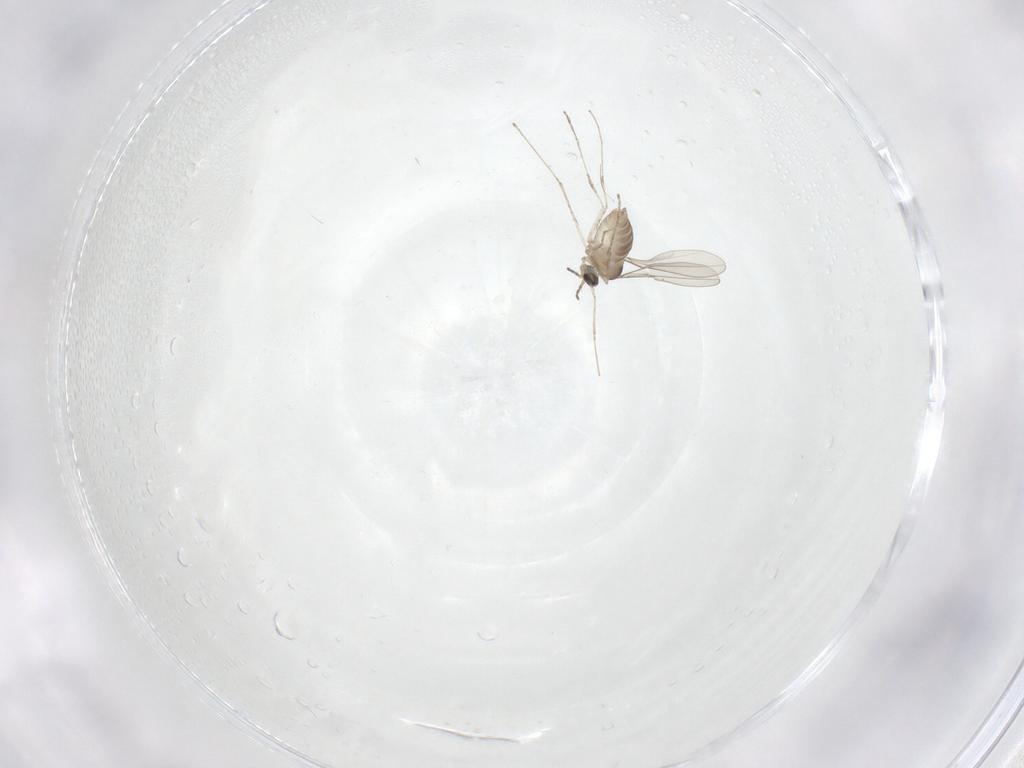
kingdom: Animalia
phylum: Arthropoda
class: Insecta
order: Diptera
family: Cecidomyiidae
